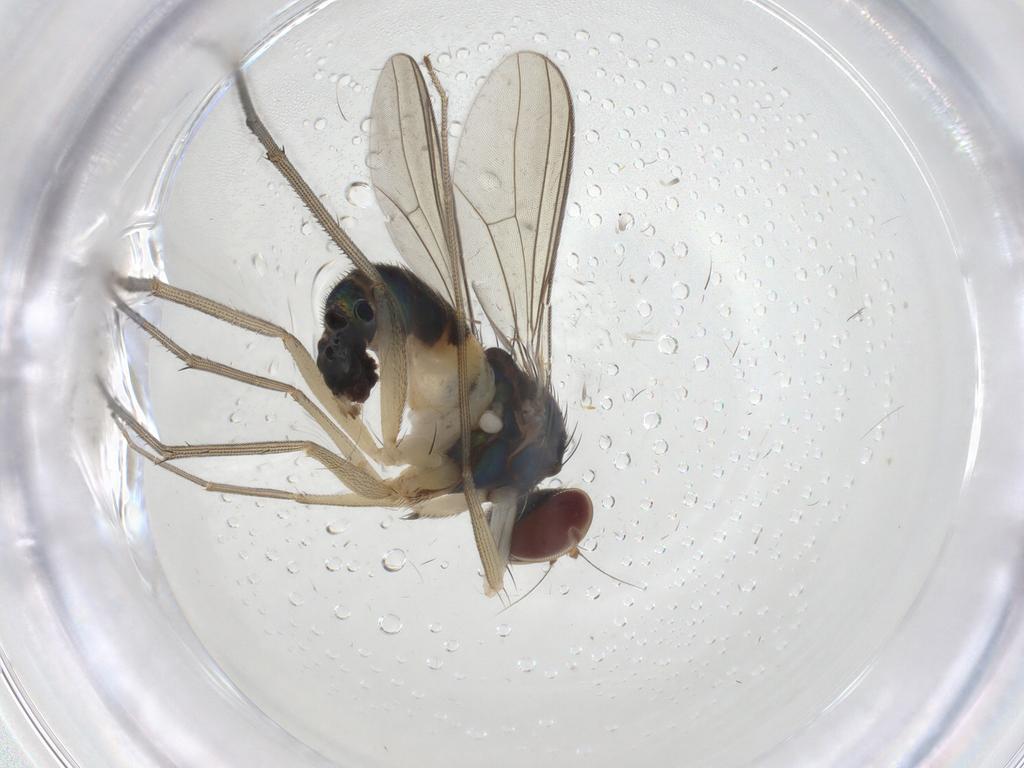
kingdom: Animalia
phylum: Arthropoda
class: Insecta
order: Diptera
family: Dolichopodidae
